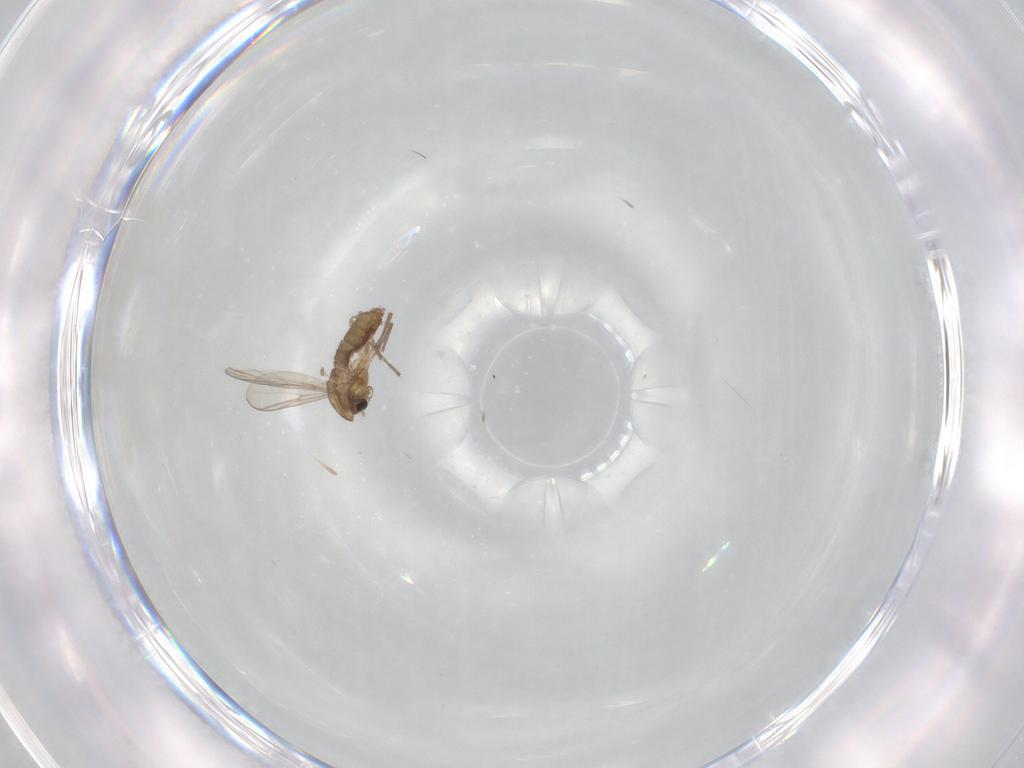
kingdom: Animalia
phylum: Arthropoda
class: Insecta
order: Diptera
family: Chironomidae
